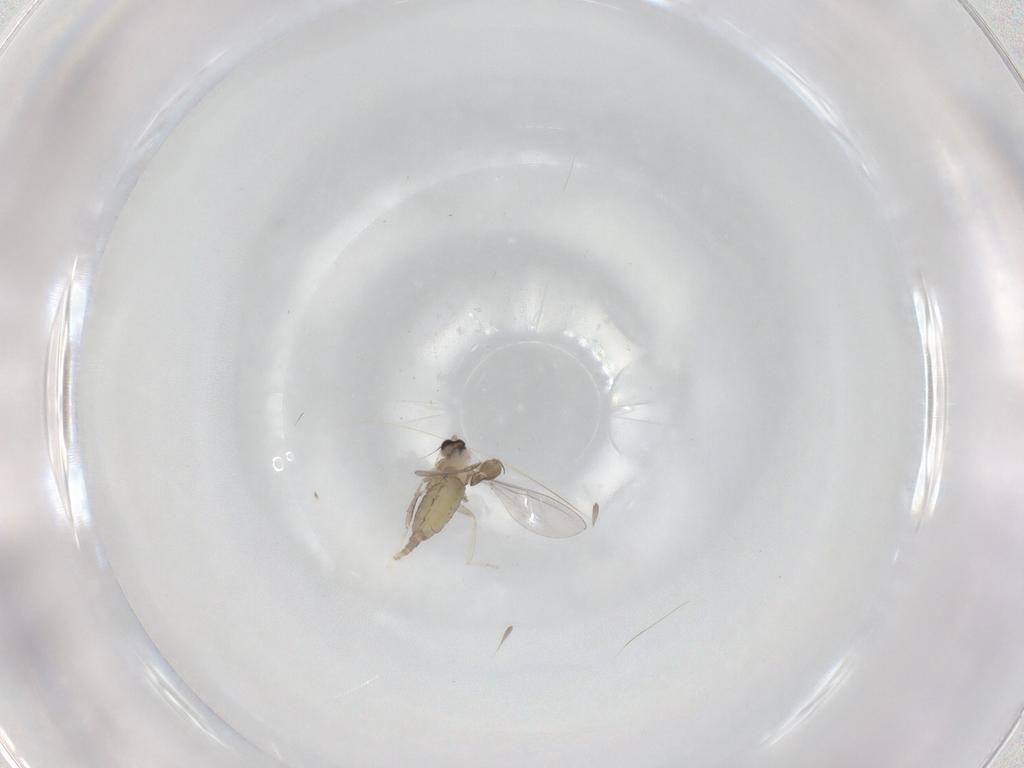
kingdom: Animalia
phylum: Arthropoda
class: Insecta
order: Diptera
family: Cecidomyiidae
